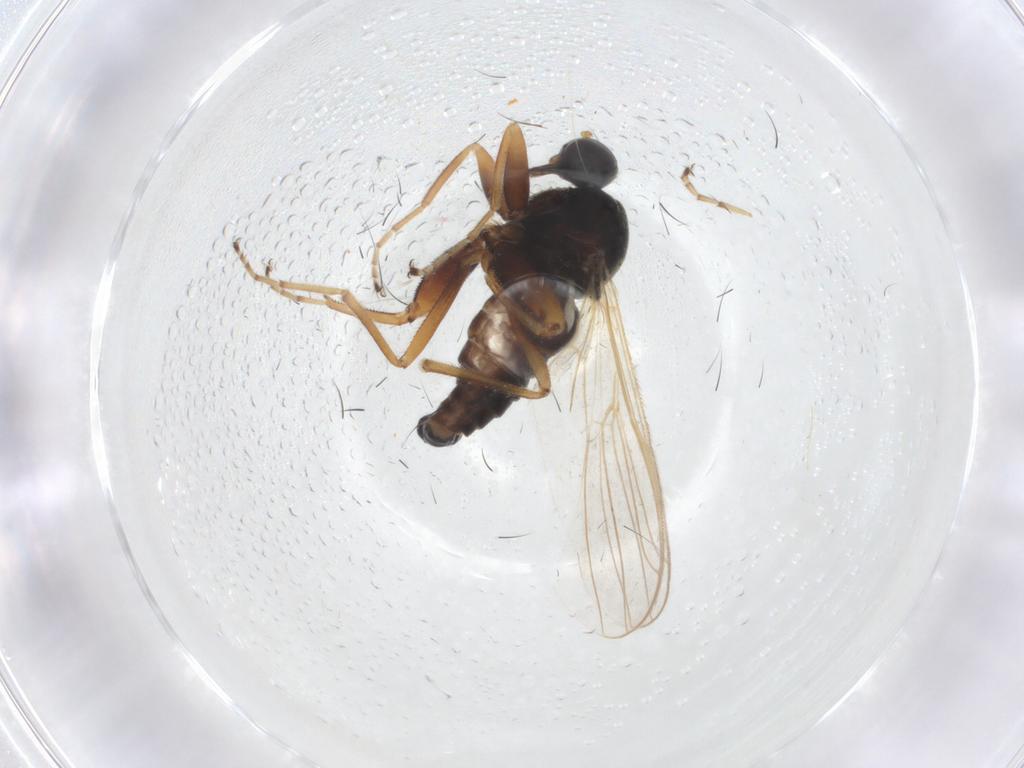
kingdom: Animalia
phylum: Arthropoda
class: Insecta
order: Diptera
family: Hybotidae
